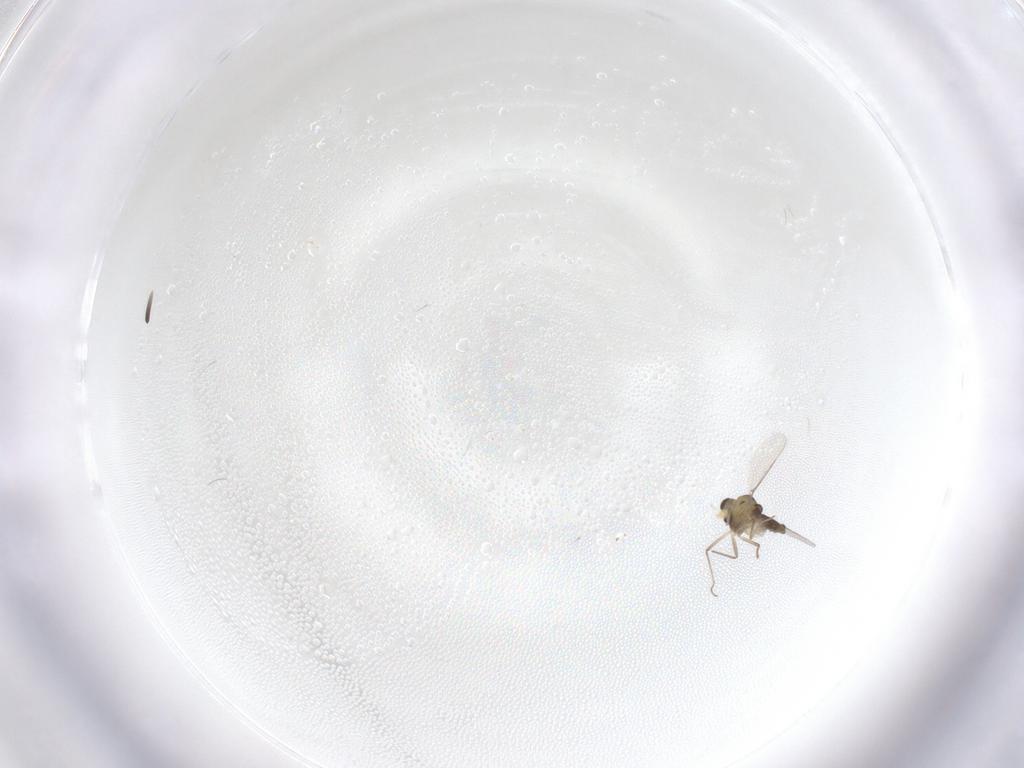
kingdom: Animalia
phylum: Arthropoda
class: Insecta
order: Diptera
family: Chironomidae
